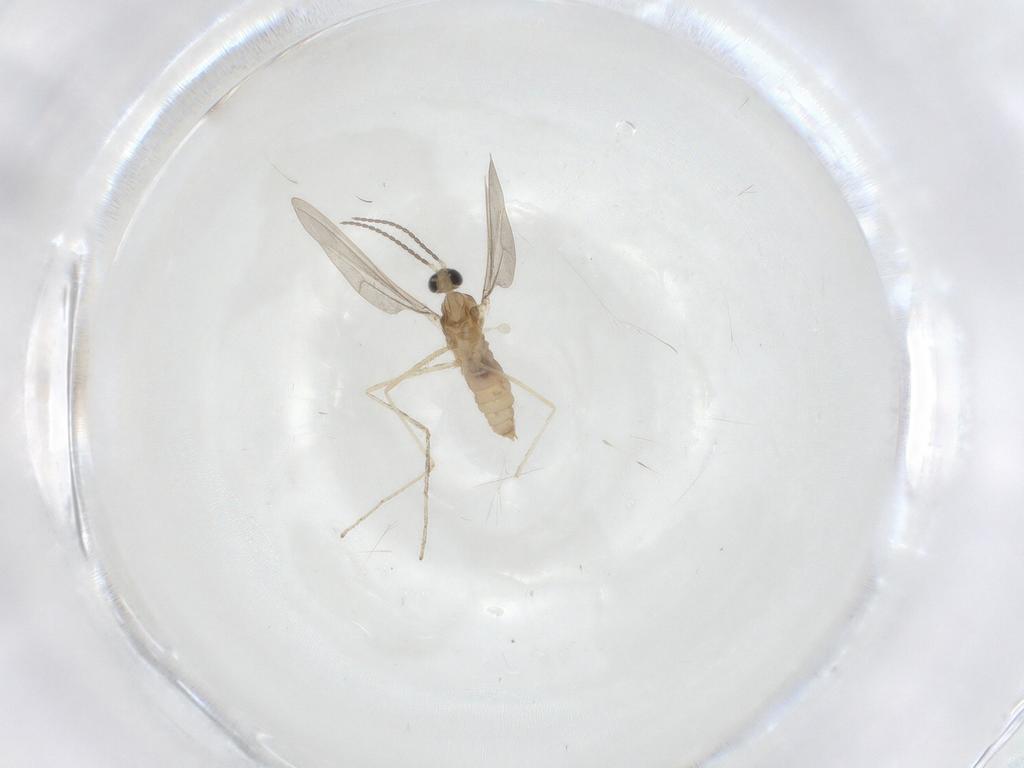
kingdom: Animalia
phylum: Arthropoda
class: Insecta
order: Diptera
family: Cecidomyiidae
